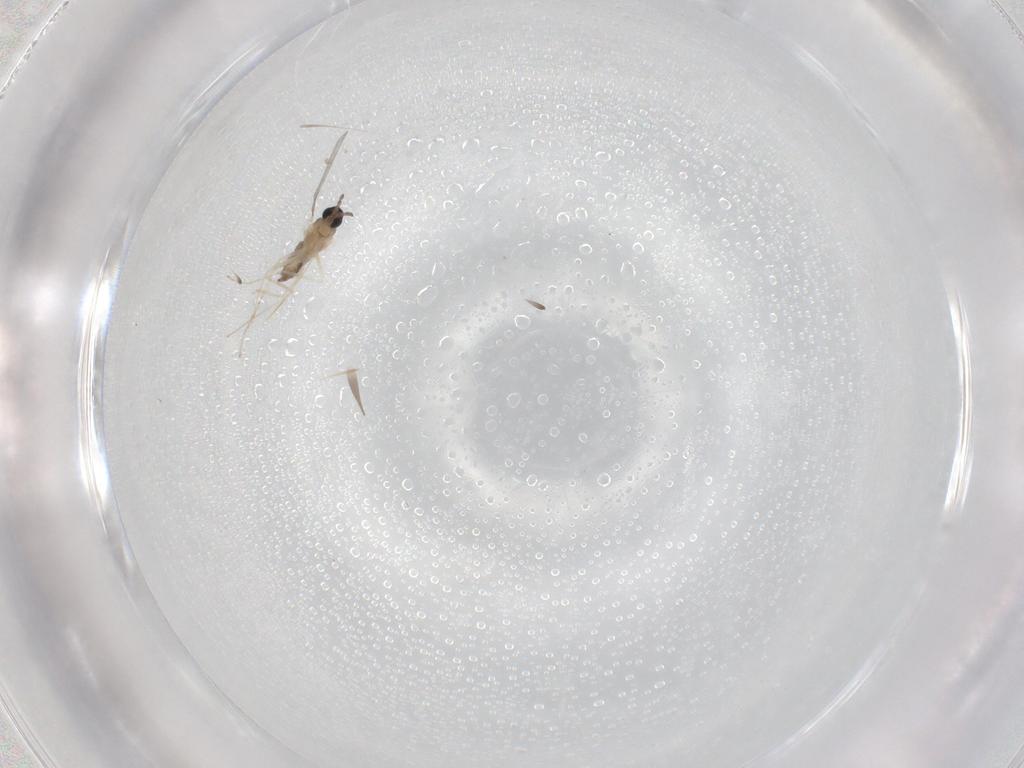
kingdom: Animalia
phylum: Arthropoda
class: Insecta
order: Diptera
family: Cecidomyiidae
